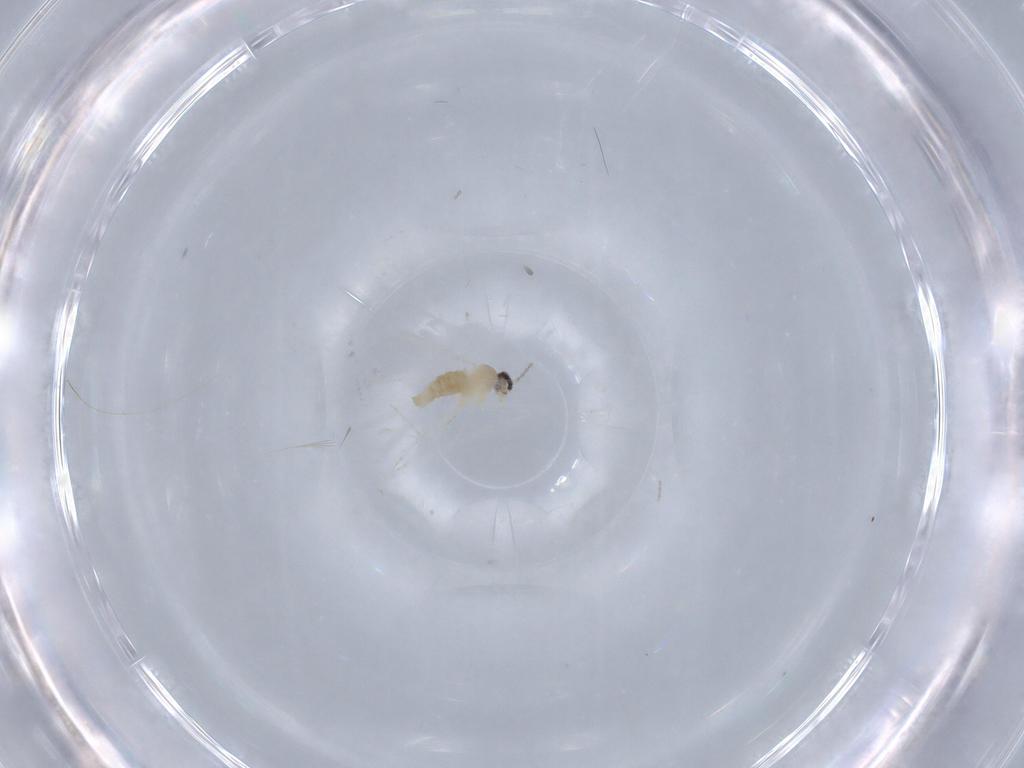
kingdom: Animalia
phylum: Arthropoda
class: Insecta
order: Diptera
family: Cecidomyiidae
